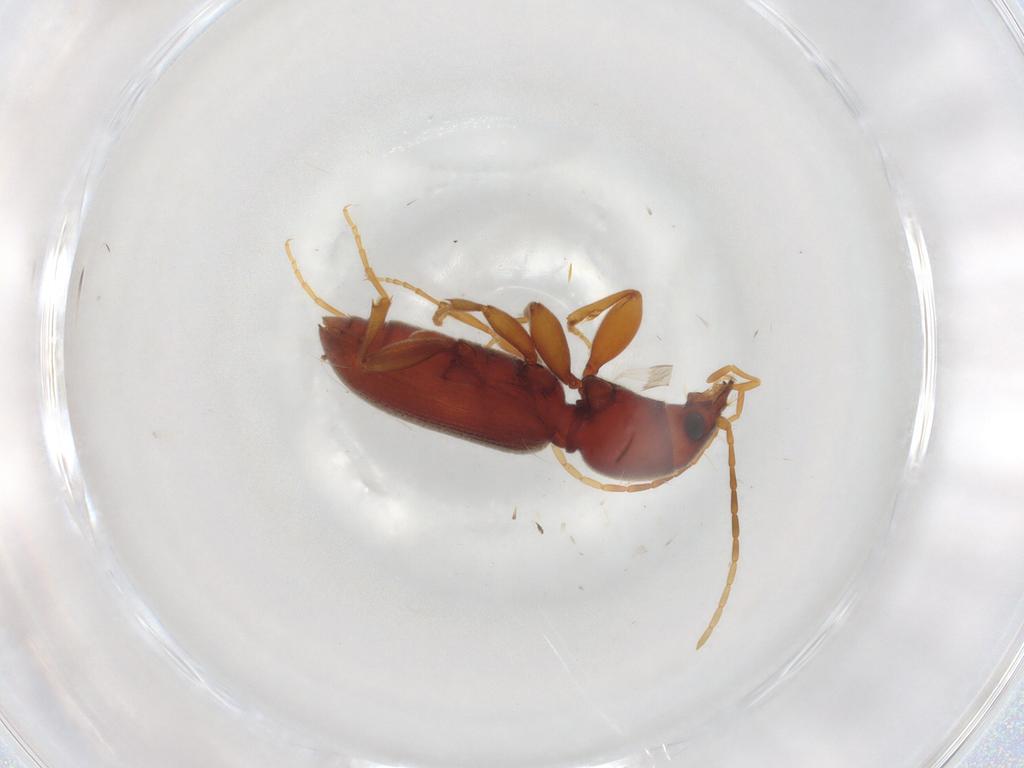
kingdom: Animalia
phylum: Arthropoda
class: Insecta
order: Coleoptera
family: Carabidae
